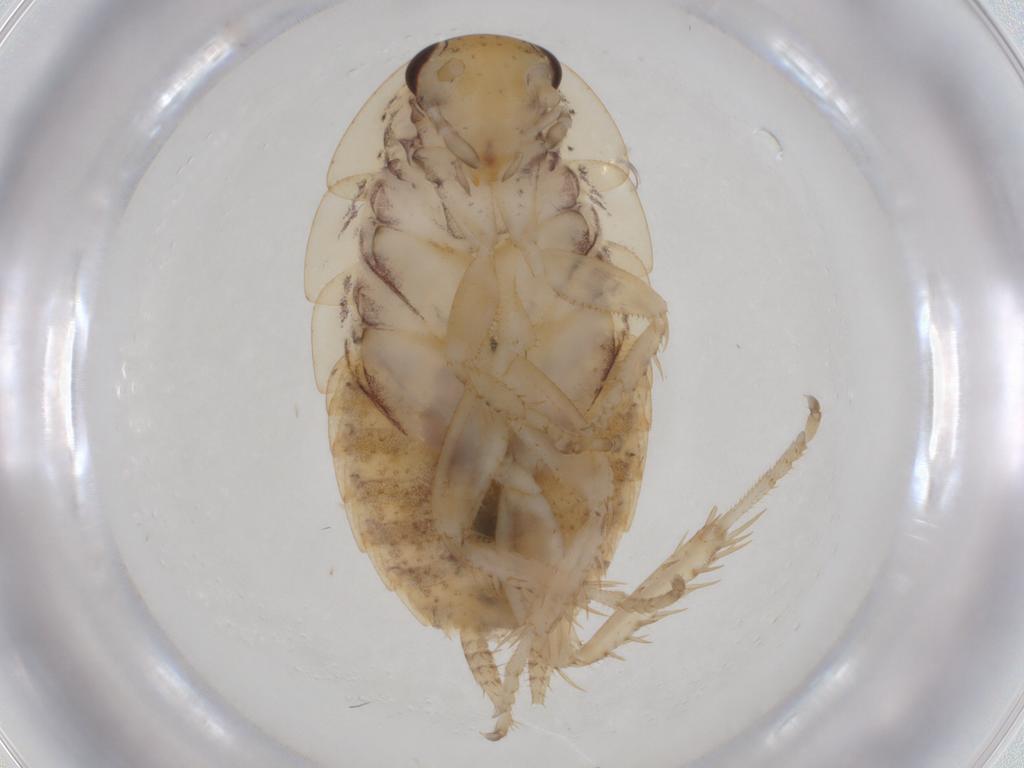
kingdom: Animalia
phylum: Arthropoda
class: Insecta
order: Blattodea
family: Blaberidae
